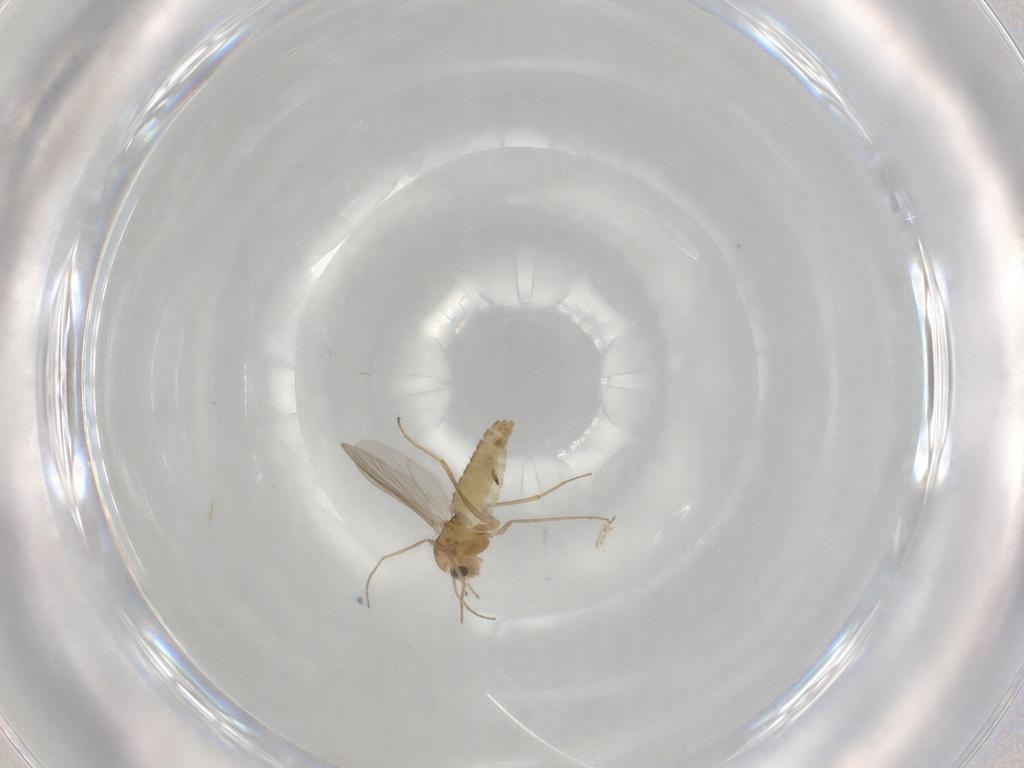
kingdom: Animalia
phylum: Arthropoda
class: Insecta
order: Diptera
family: Chironomidae
